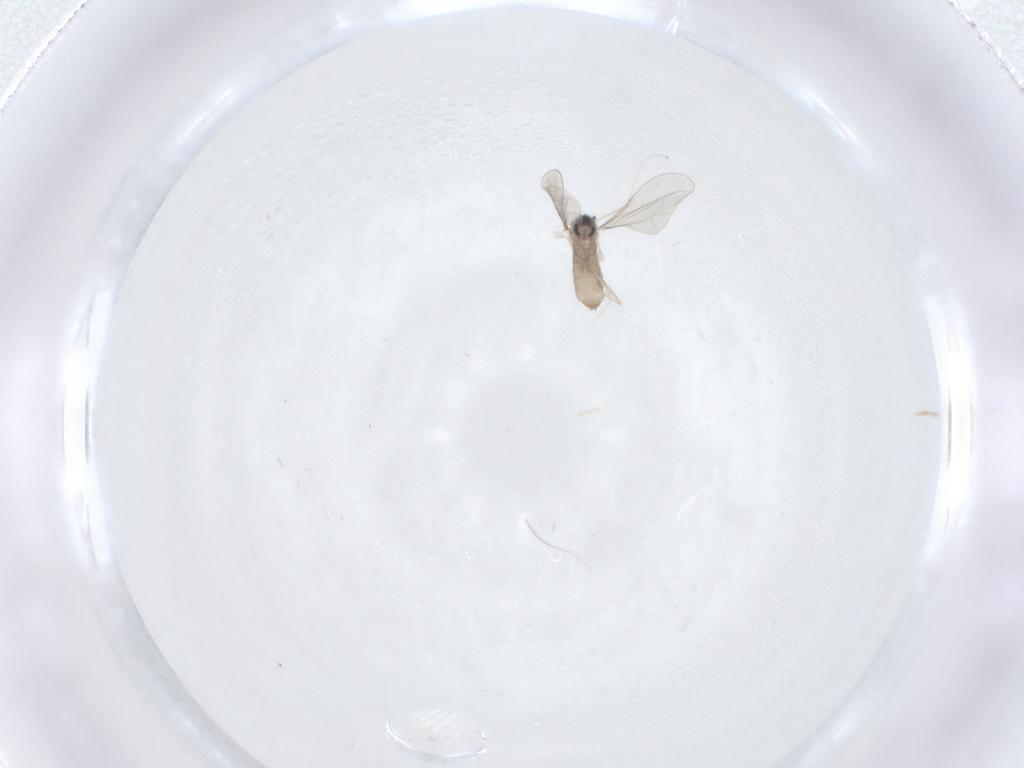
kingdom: Animalia
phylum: Arthropoda
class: Insecta
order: Diptera
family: Cecidomyiidae
